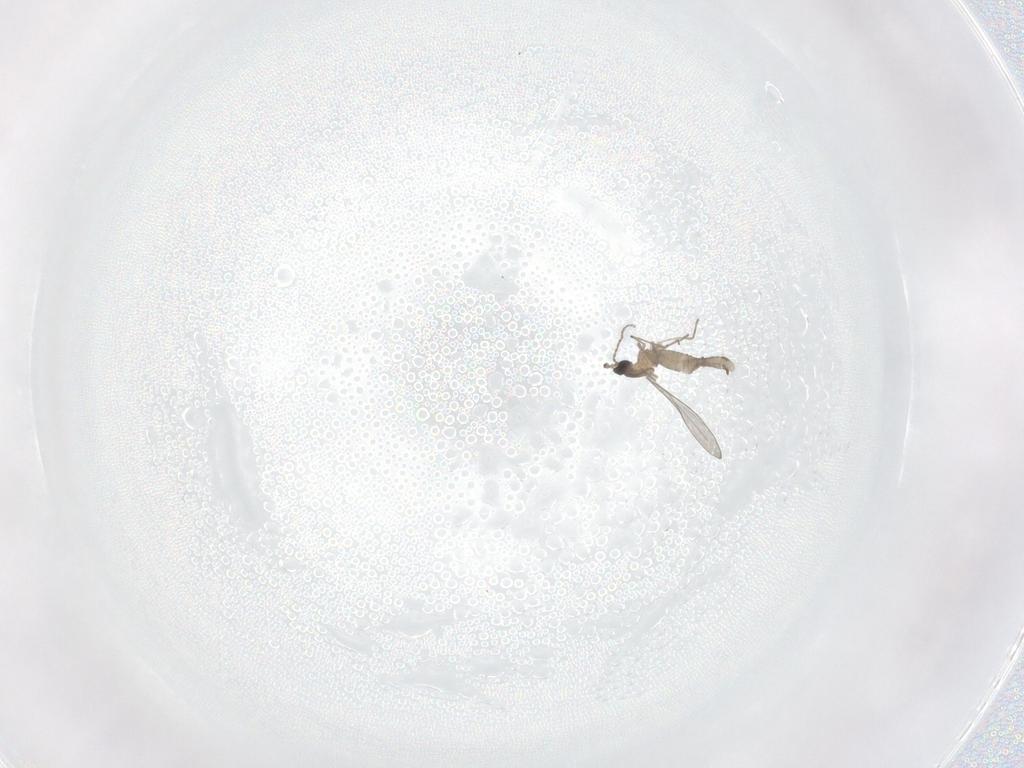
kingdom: Animalia
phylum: Arthropoda
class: Insecta
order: Diptera
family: Cecidomyiidae
